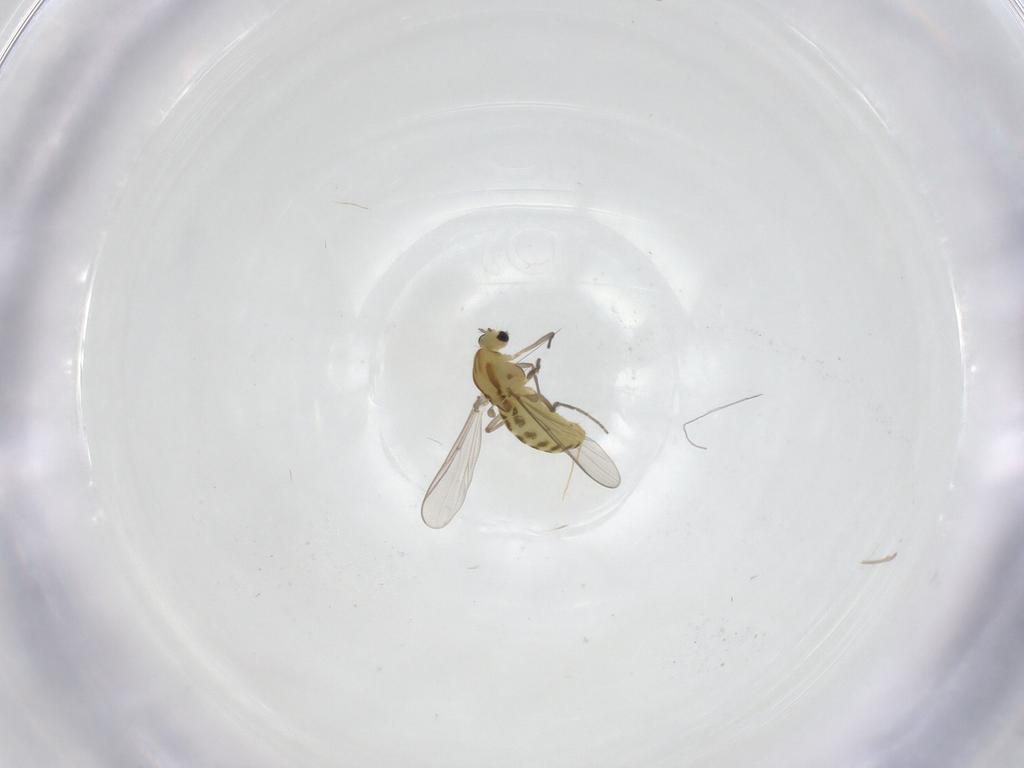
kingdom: Animalia
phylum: Arthropoda
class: Insecta
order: Diptera
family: Chironomidae
